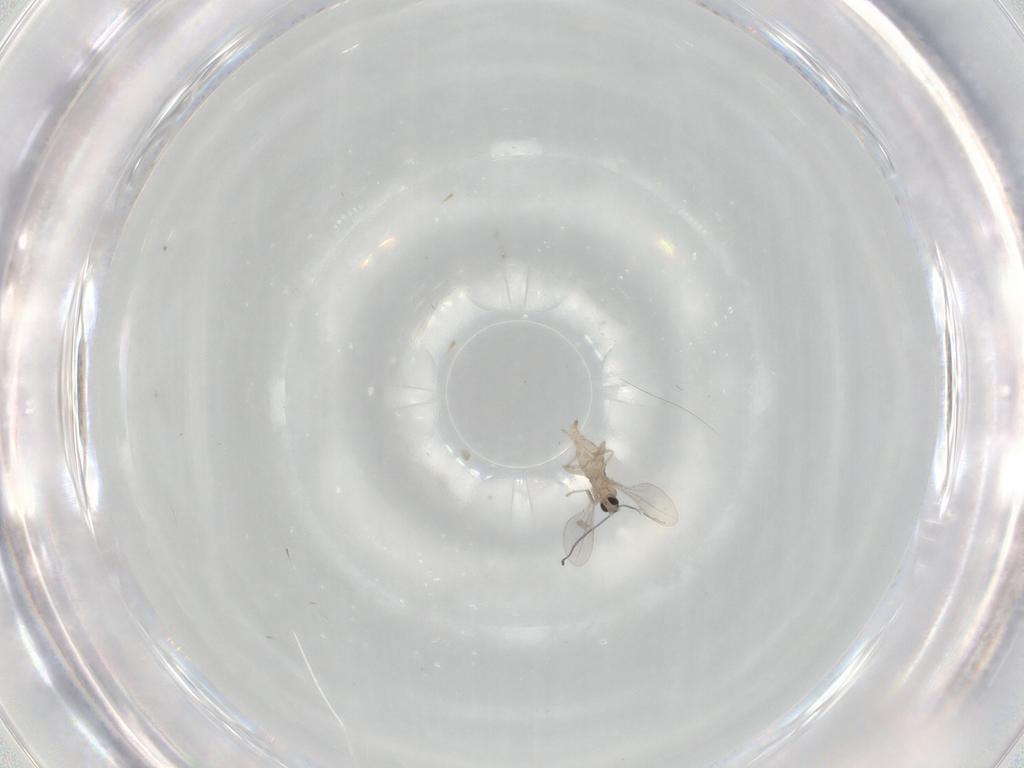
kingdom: Animalia
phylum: Arthropoda
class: Insecta
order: Diptera
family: Cecidomyiidae
